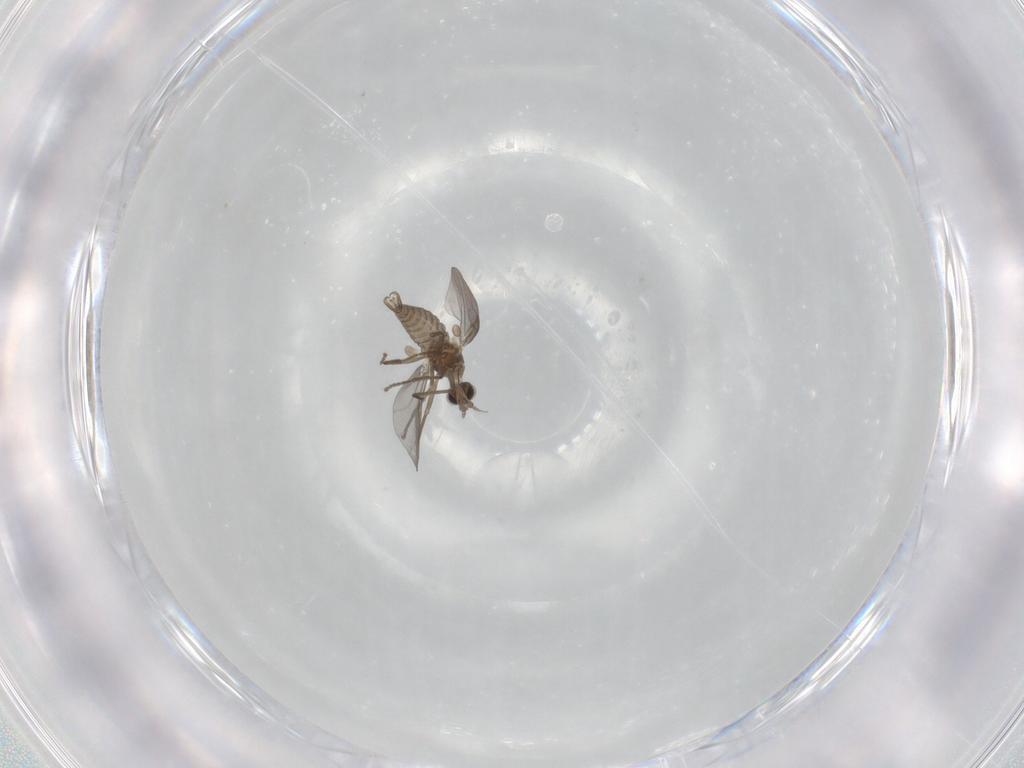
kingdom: Animalia
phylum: Arthropoda
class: Insecta
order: Diptera
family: Cecidomyiidae
